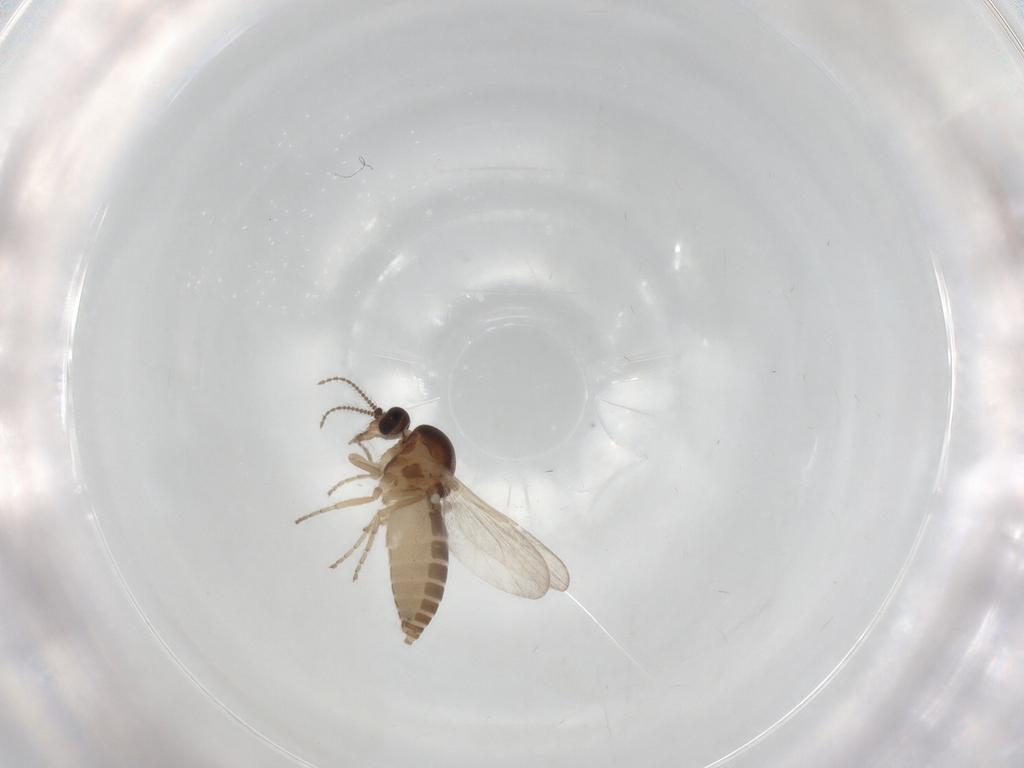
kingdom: Animalia
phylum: Arthropoda
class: Insecta
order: Diptera
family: Ceratopogonidae
